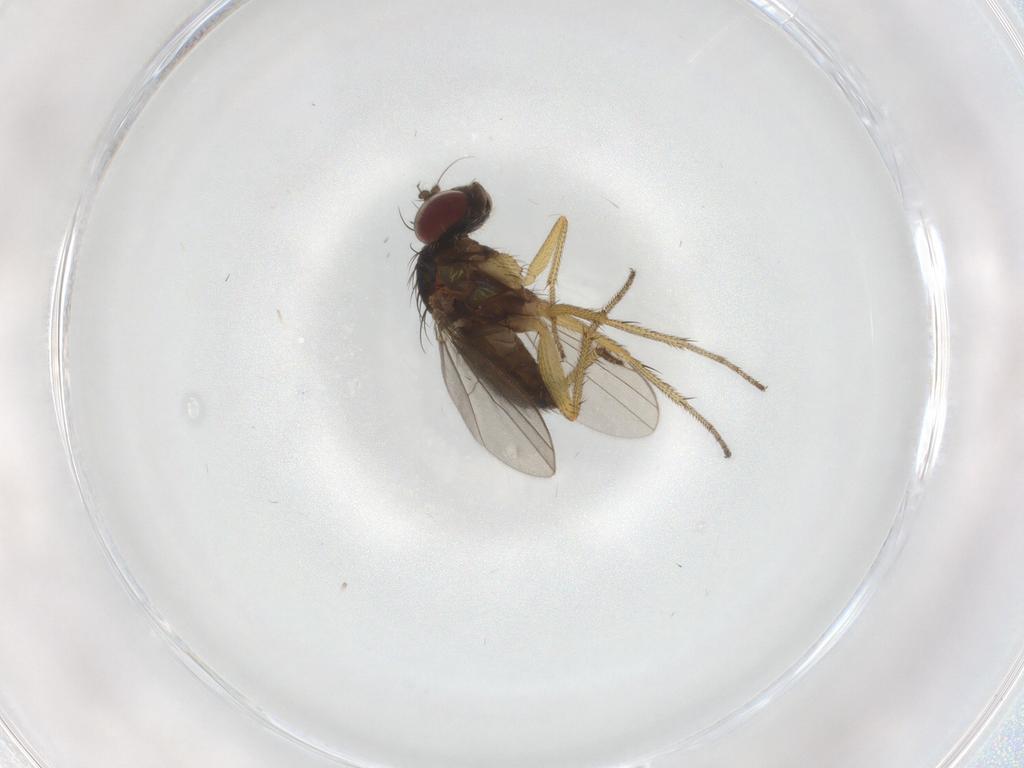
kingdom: Animalia
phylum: Arthropoda
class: Insecta
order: Diptera
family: Dolichopodidae
